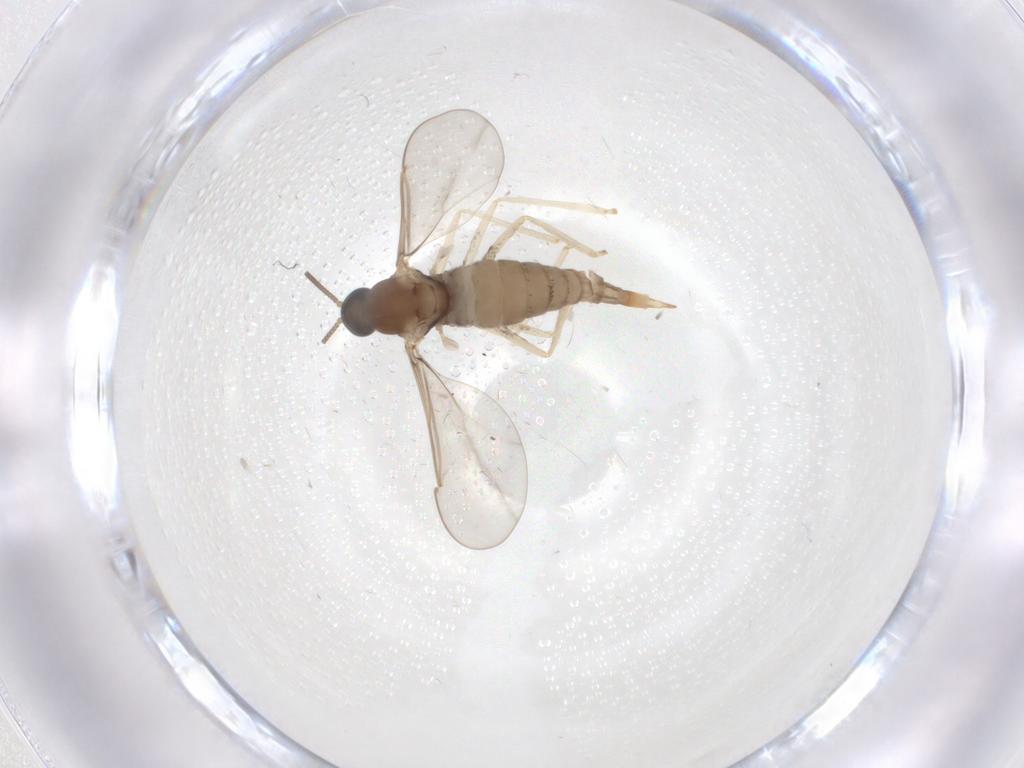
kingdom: Animalia
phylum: Arthropoda
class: Insecta
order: Diptera
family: Cecidomyiidae
